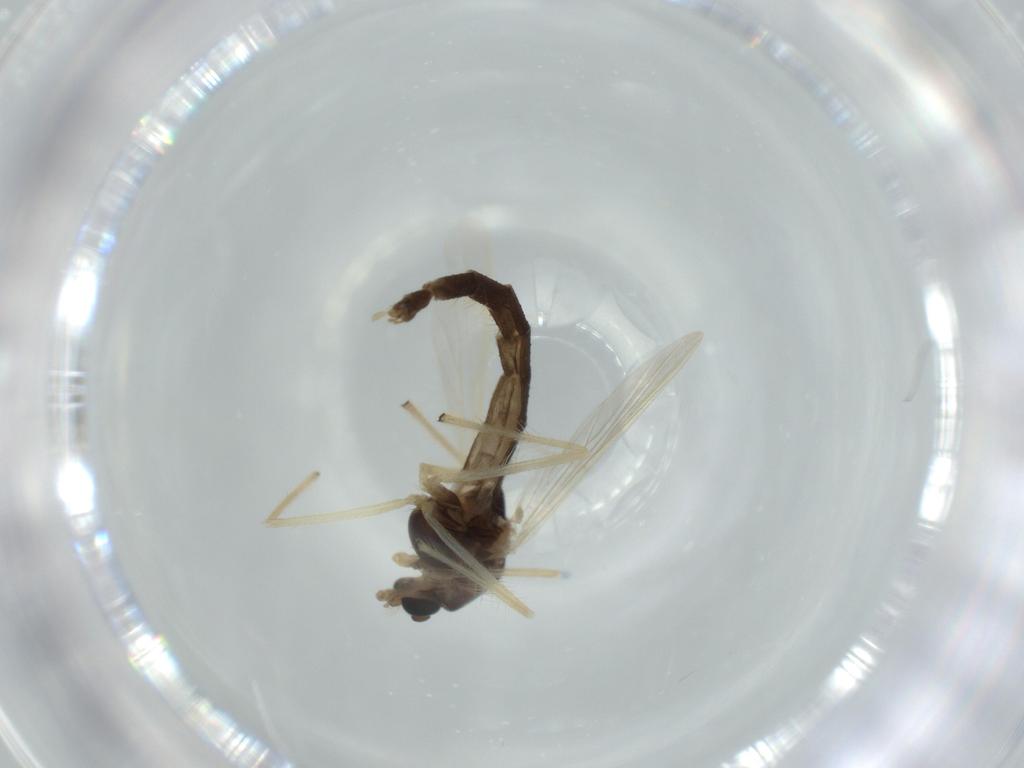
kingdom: Animalia
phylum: Arthropoda
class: Insecta
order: Diptera
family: Chironomidae
